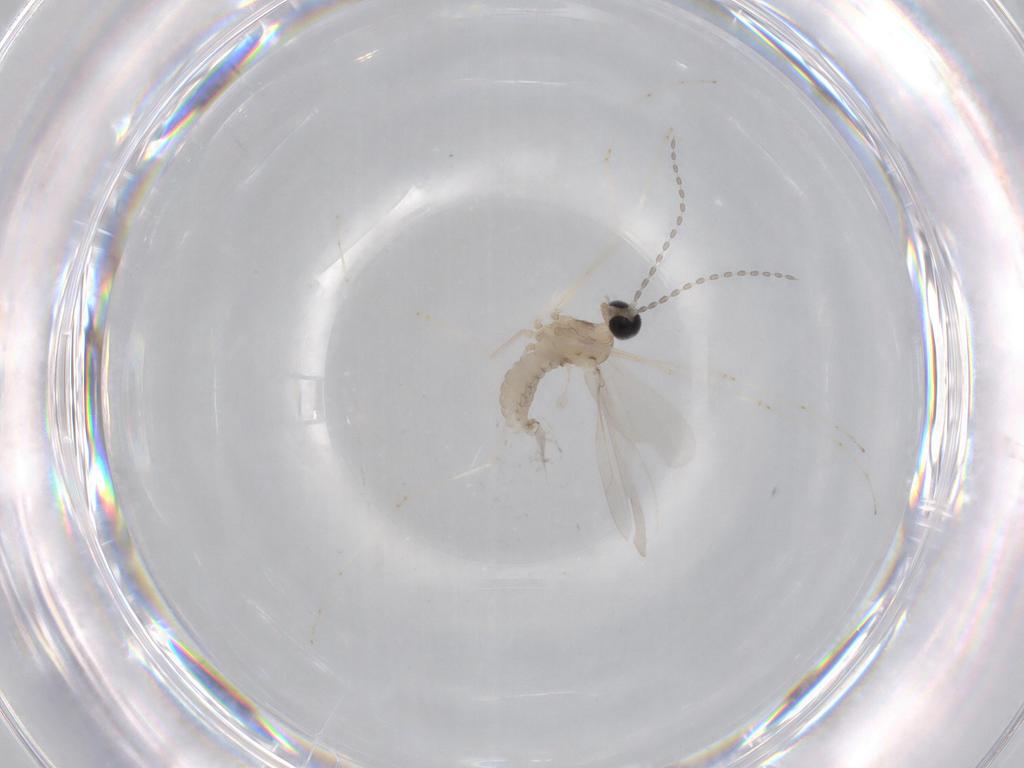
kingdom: Animalia
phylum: Arthropoda
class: Insecta
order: Diptera
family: Cecidomyiidae
